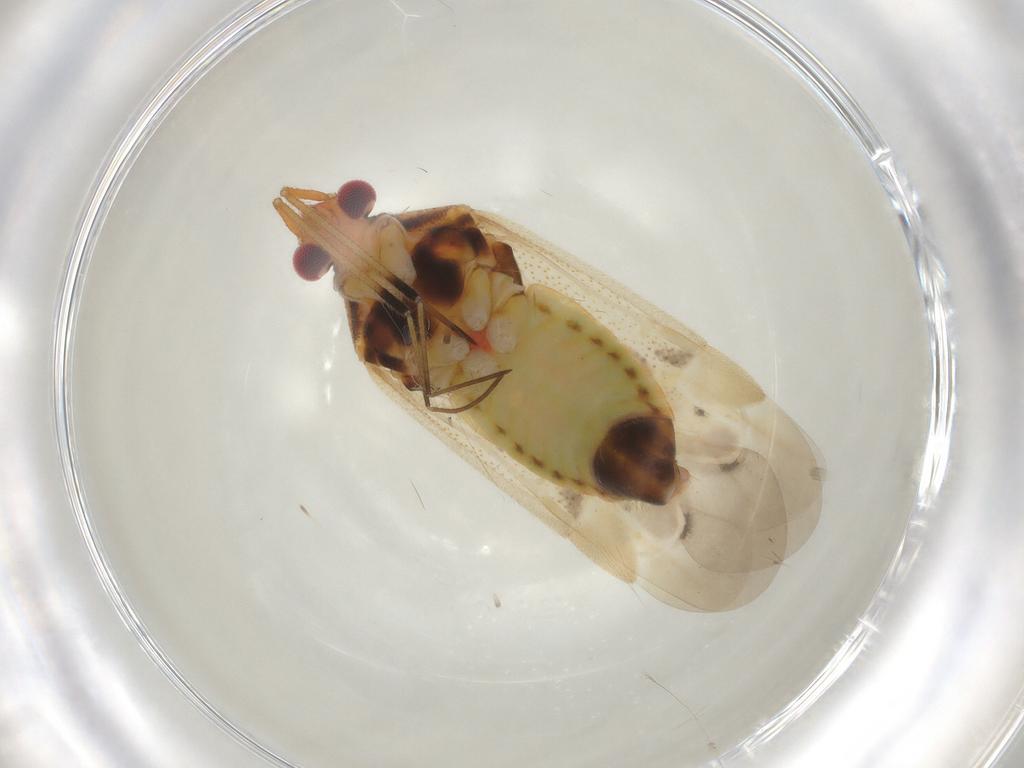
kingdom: Animalia
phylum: Arthropoda
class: Insecta
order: Hemiptera
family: Miridae
